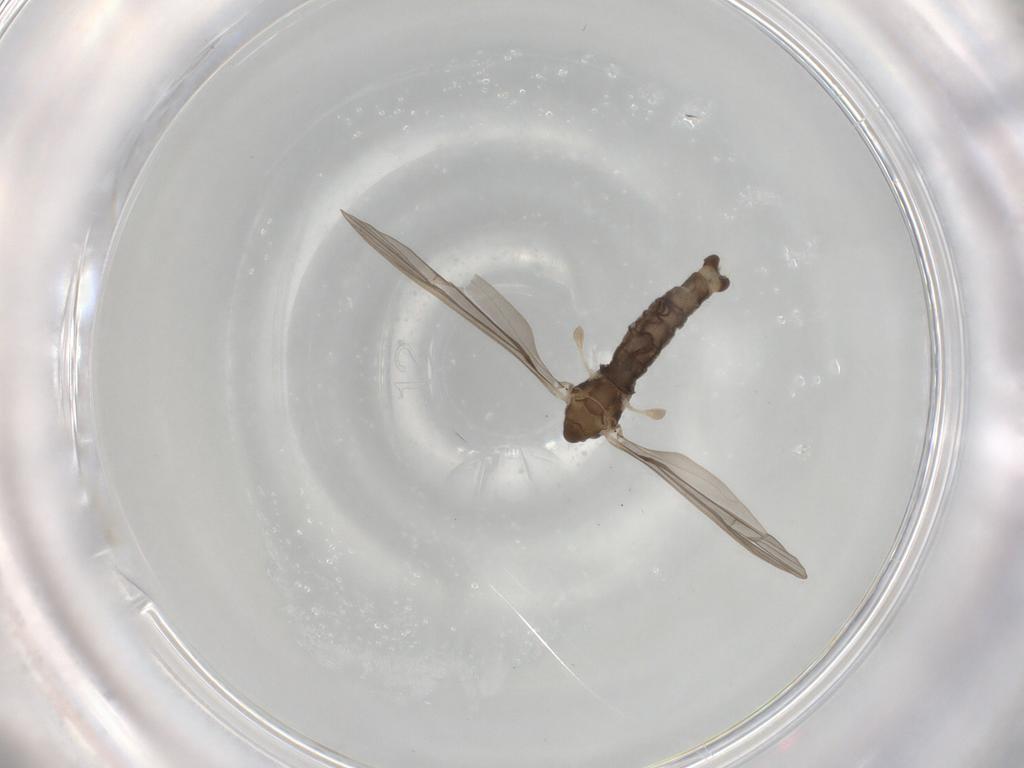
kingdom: Animalia
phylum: Arthropoda
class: Insecta
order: Diptera
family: Limoniidae
